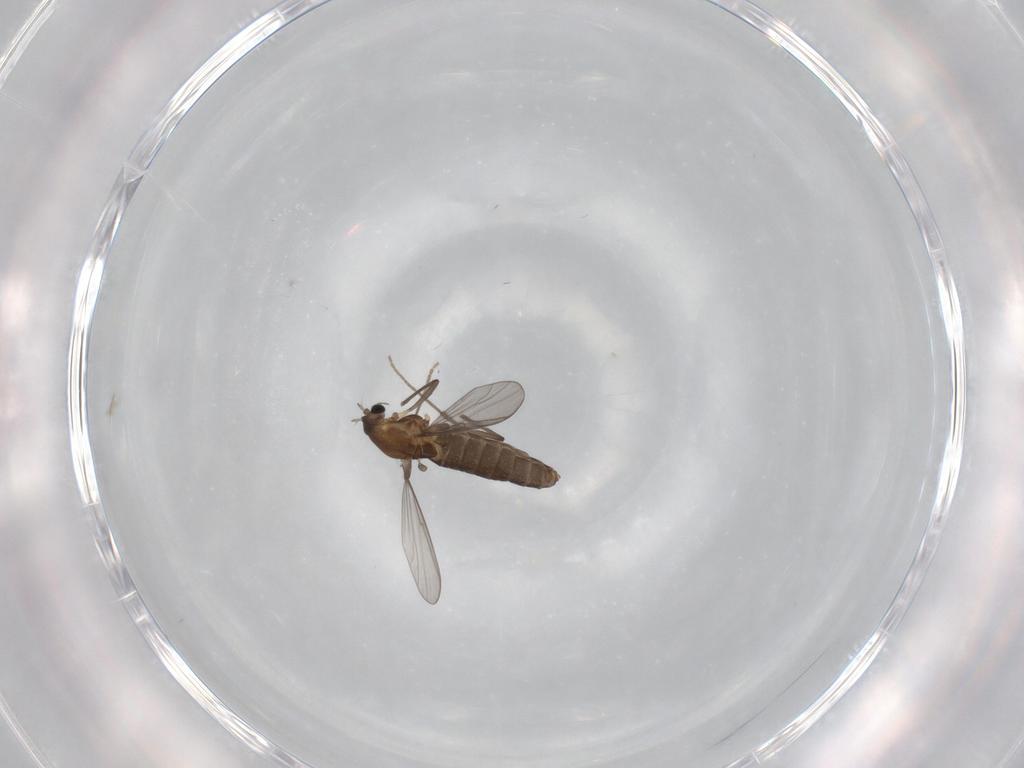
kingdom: Animalia
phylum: Arthropoda
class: Insecta
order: Diptera
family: Chironomidae
